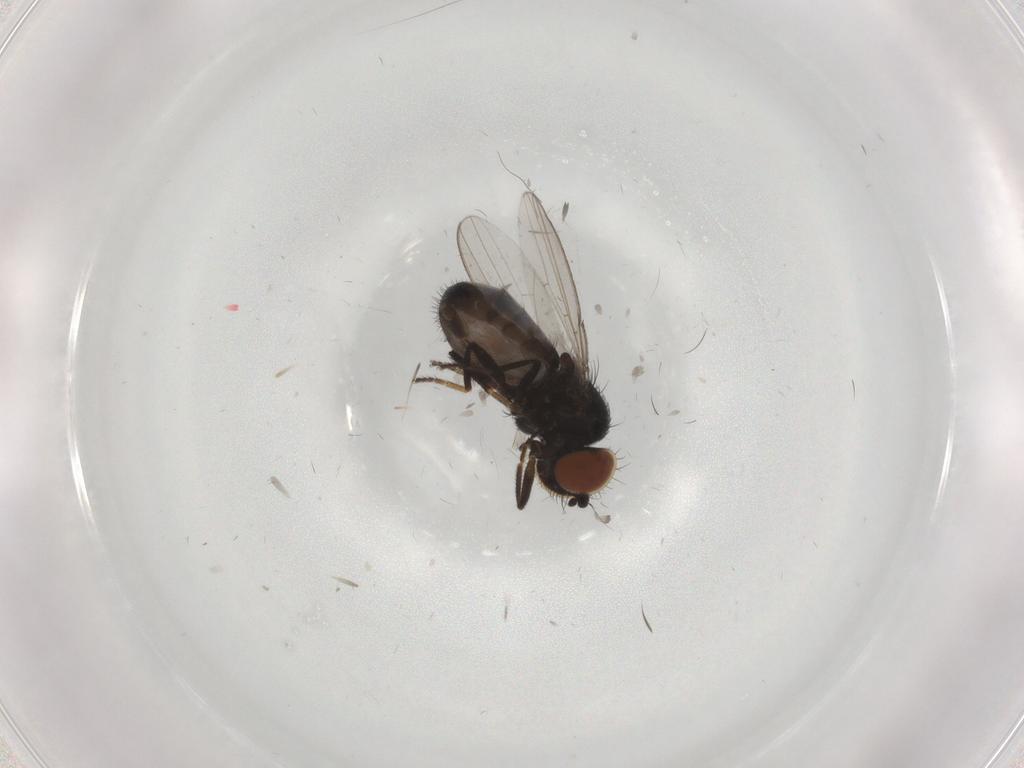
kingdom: Animalia
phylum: Arthropoda
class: Insecta
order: Diptera
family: Milichiidae
